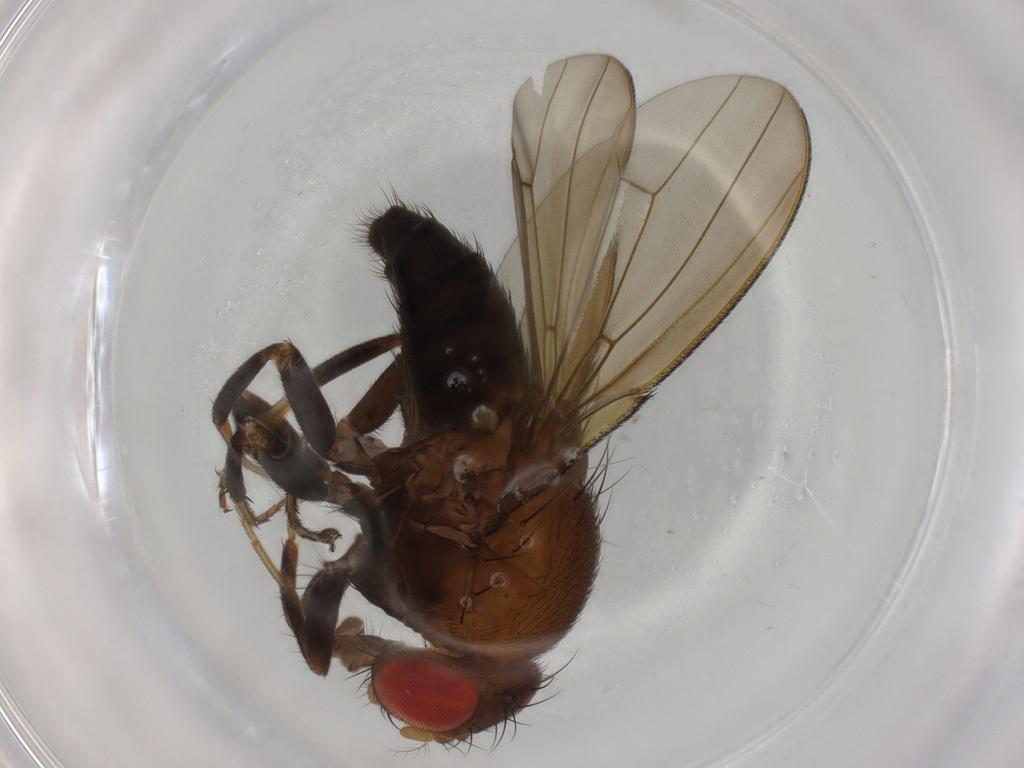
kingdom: Animalia
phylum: Arthropoda
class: Insecta
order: Diptera
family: Drosophilidae
